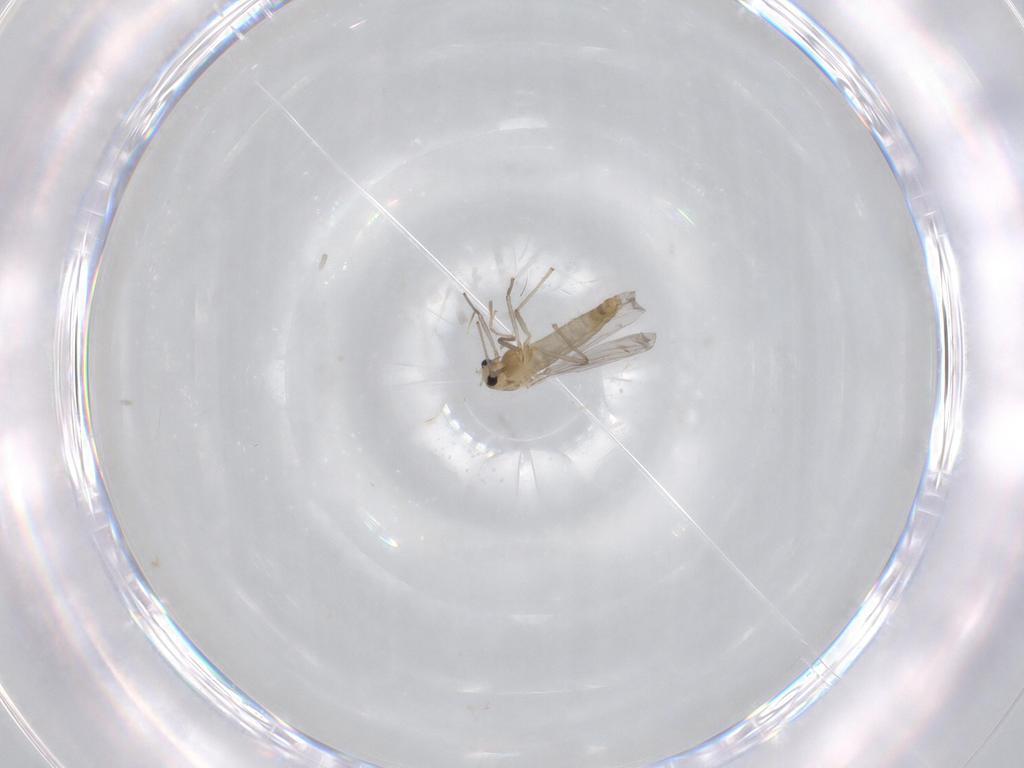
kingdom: Animalia
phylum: Arthropoda
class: Insecta
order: Diptera
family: Chironomidae
